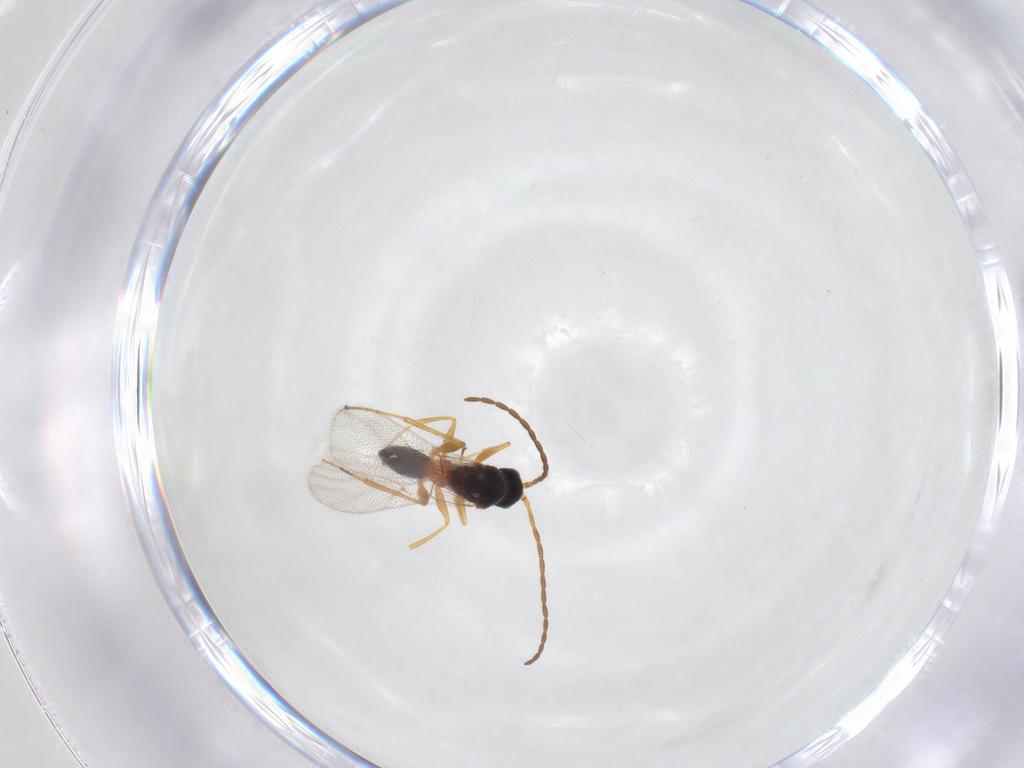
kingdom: Animalia
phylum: Arthropoda
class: Insecta
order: Hymenoptera
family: Figitidae
